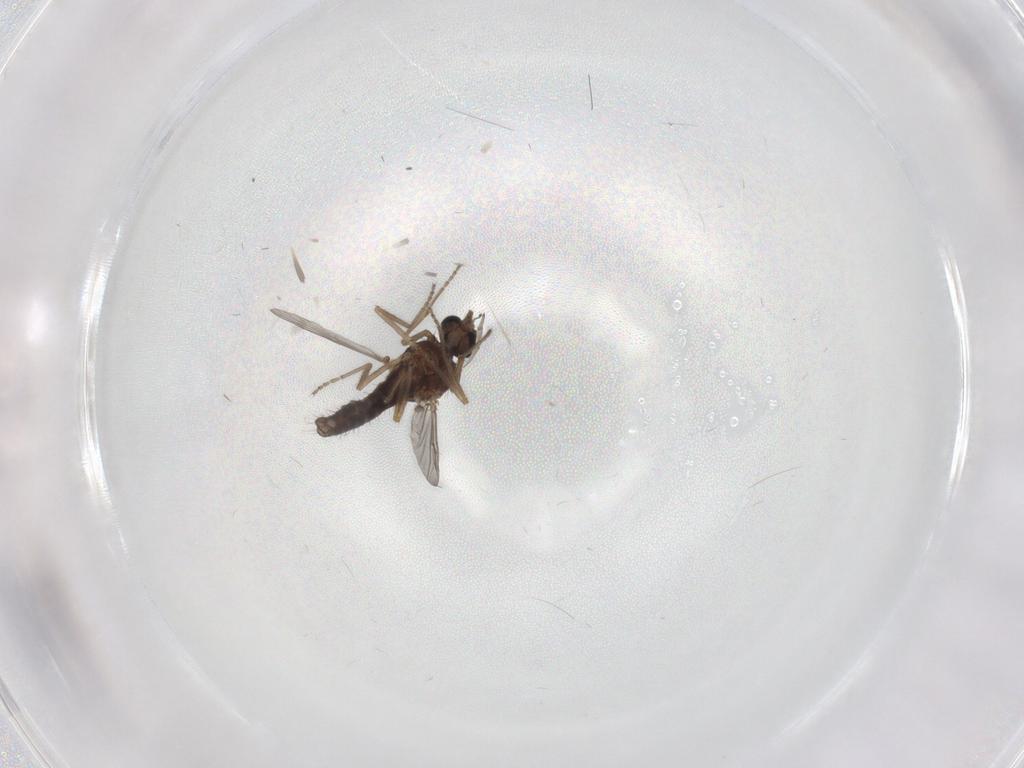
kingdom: Animalia
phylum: Arthropoda
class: Insecta
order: Diptera
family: Ceratopogonidae
